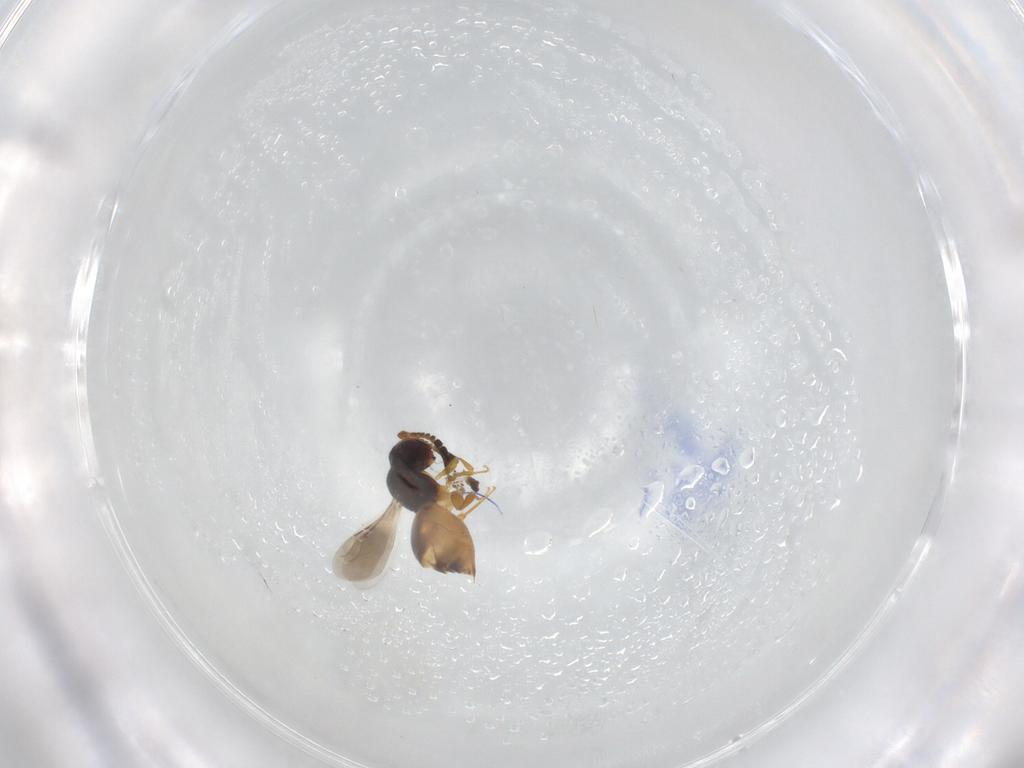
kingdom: Animalia
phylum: Arthropoda
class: Insecta
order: Hymenoptera
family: Ceraphronidae
